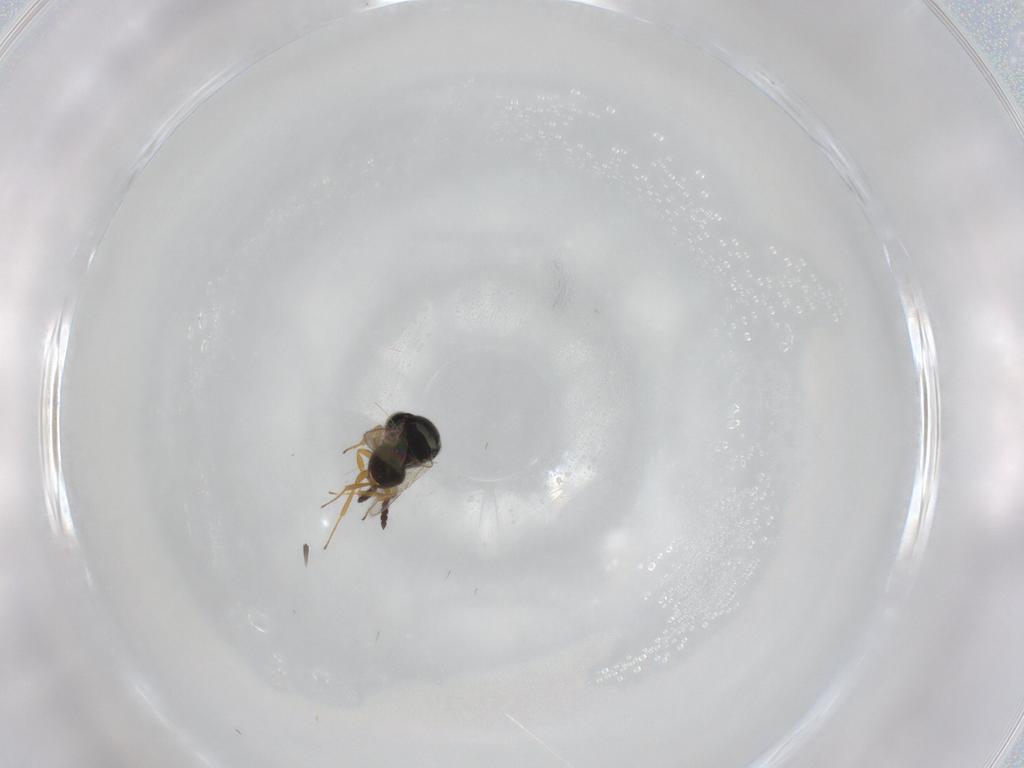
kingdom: Animalia
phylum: Arthropoda
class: Insecta
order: Hymenoptera
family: Scelionidae
